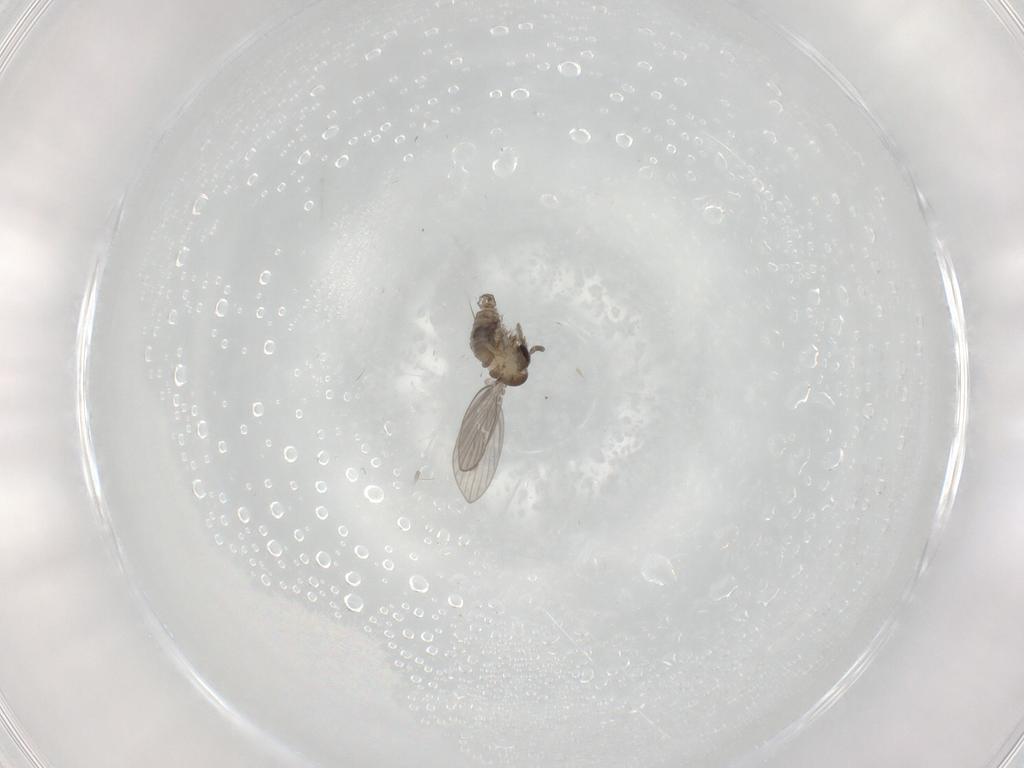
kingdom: Animalia
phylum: Arthropoda
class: Insecta
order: Diptera
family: Psychodidae
